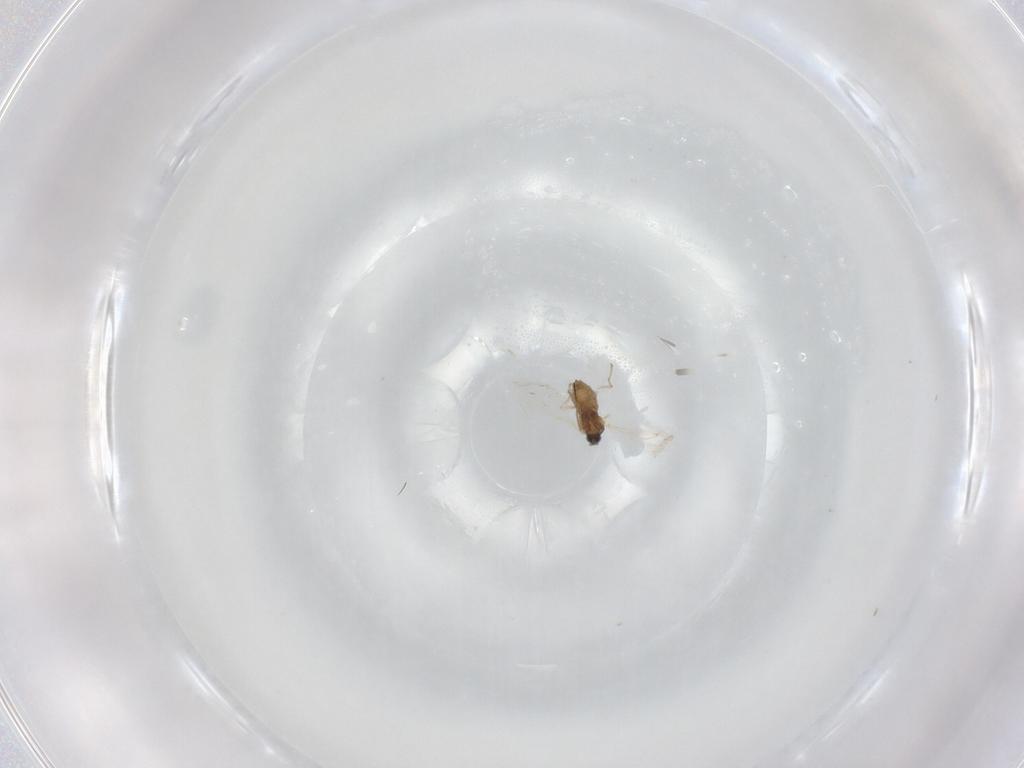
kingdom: Animalia
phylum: Arthropoda
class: Insecta
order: Diptera
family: Cecidomyiidae
